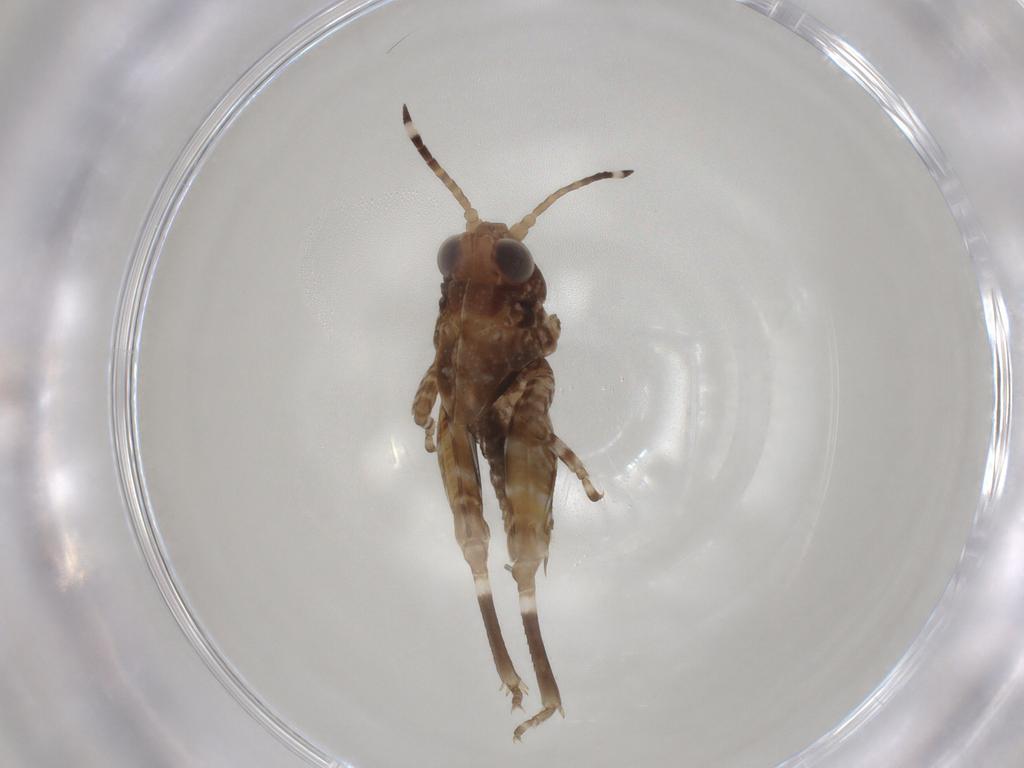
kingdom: Animalia
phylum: Arthropoda
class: Insecta
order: Orthoptera
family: Tetrigidae
